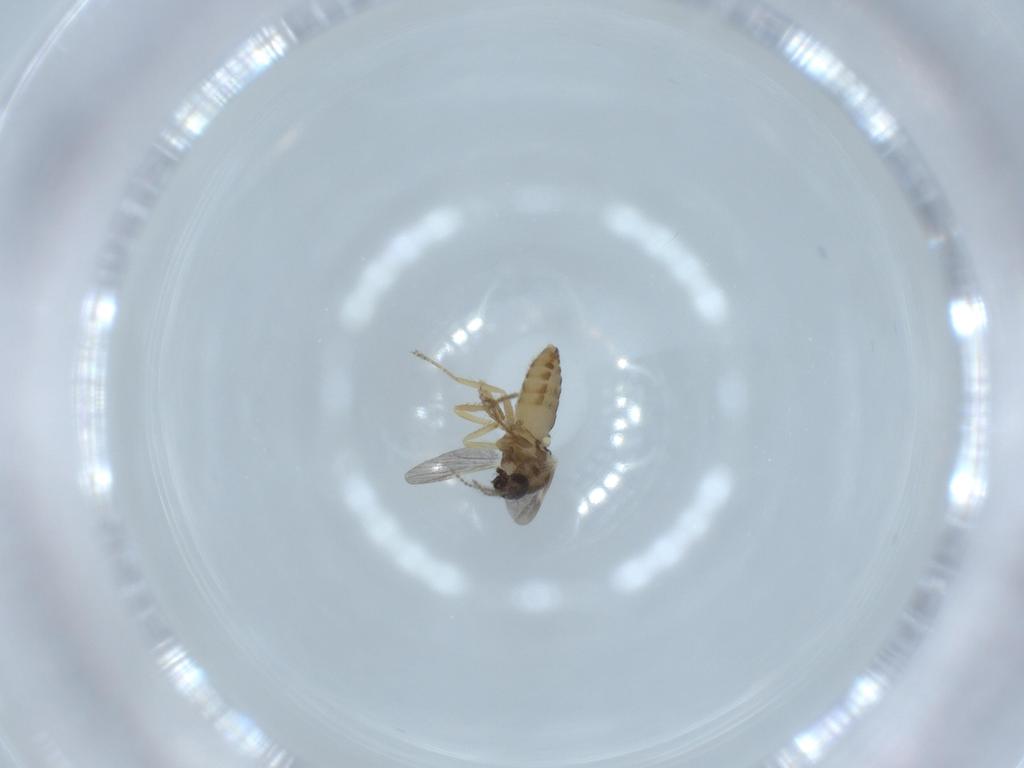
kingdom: Animalia
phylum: Arthropoda
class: Insecta
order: Diptera
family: Ceratopogonidae
